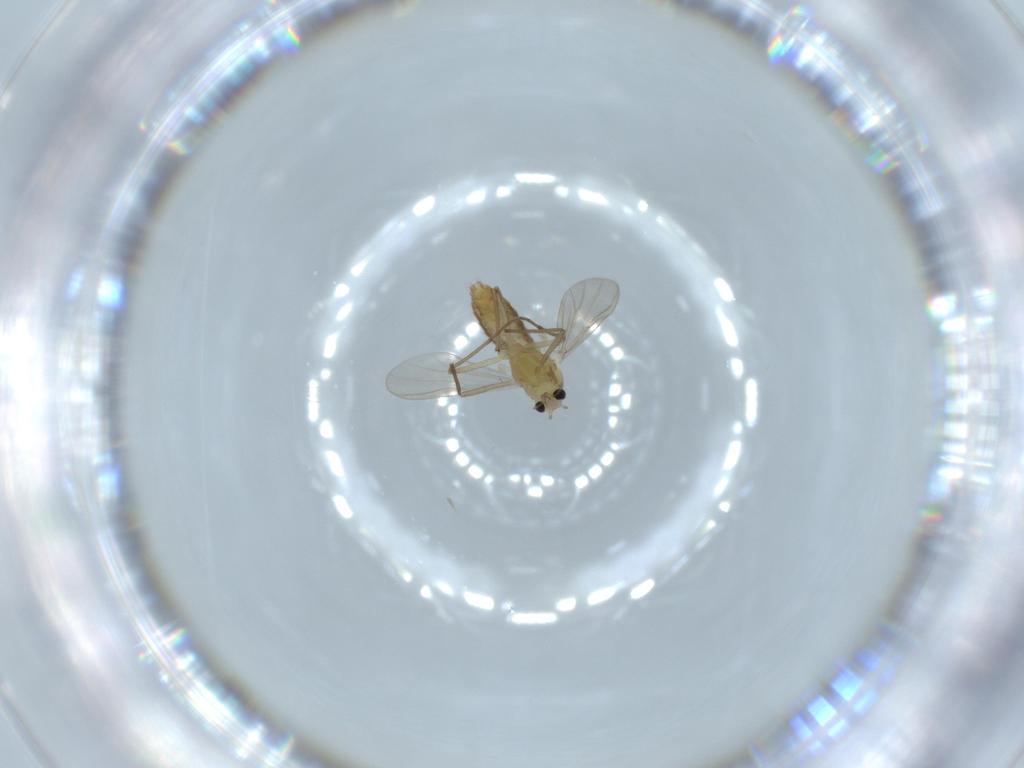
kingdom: Animalia
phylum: Arthropoda
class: Insecta
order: Diptera
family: Chironomidae
